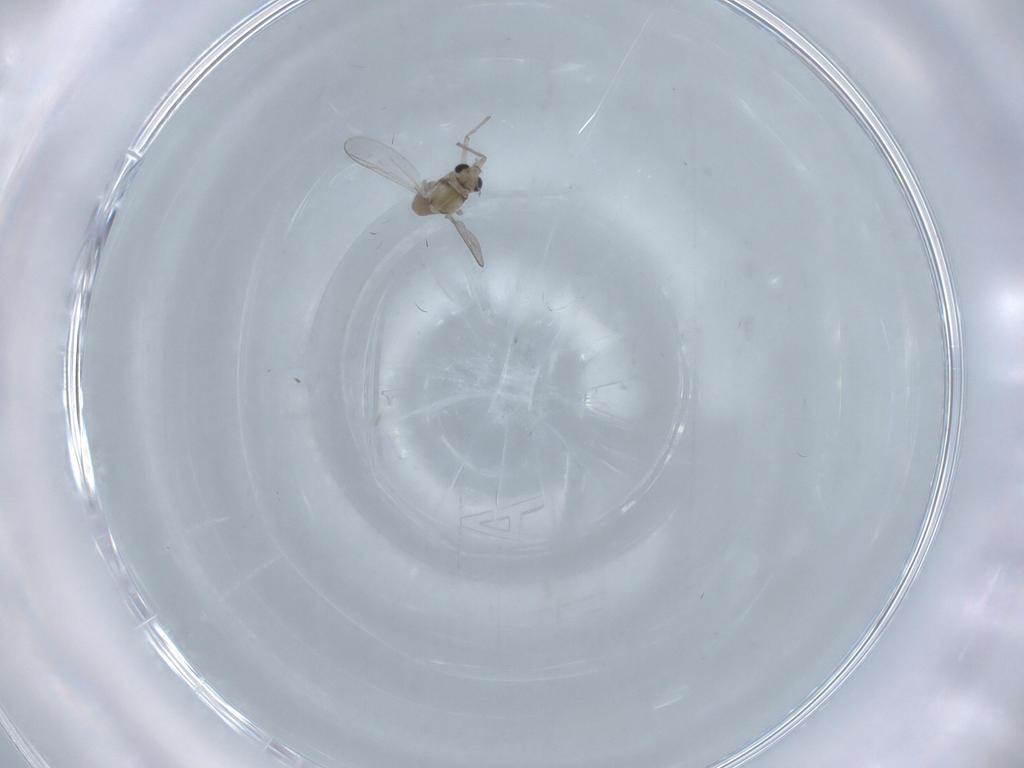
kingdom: Animalia
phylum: Arthropoda
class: Insecta
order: Diptera
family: Chironomidae
